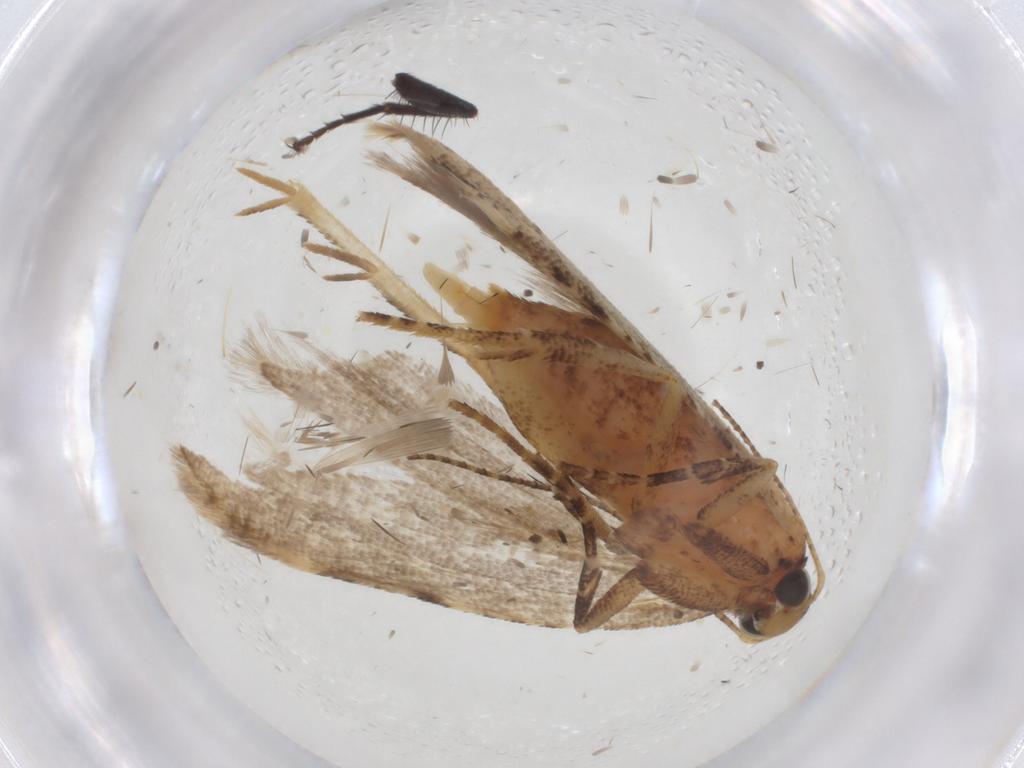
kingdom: Animalia
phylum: Arthropoda
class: Insecta
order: Lepidoptera
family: Gelechiidae
